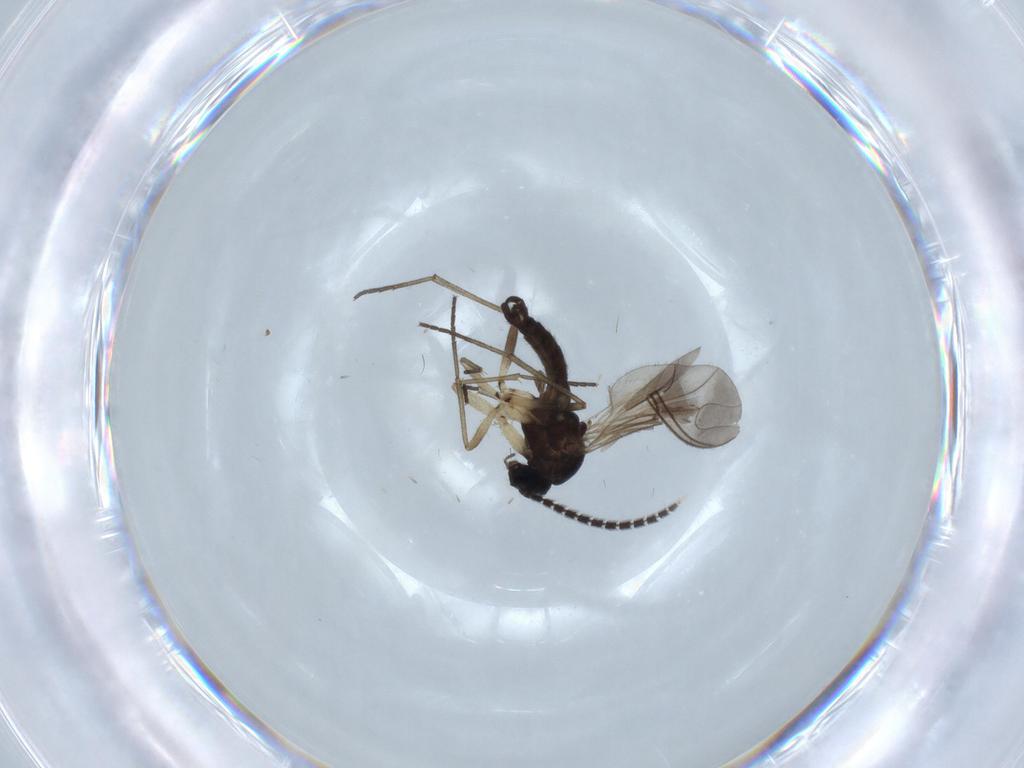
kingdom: Animalia
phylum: Arthropoda
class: Insecta
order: Diptera
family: Sciaridae
